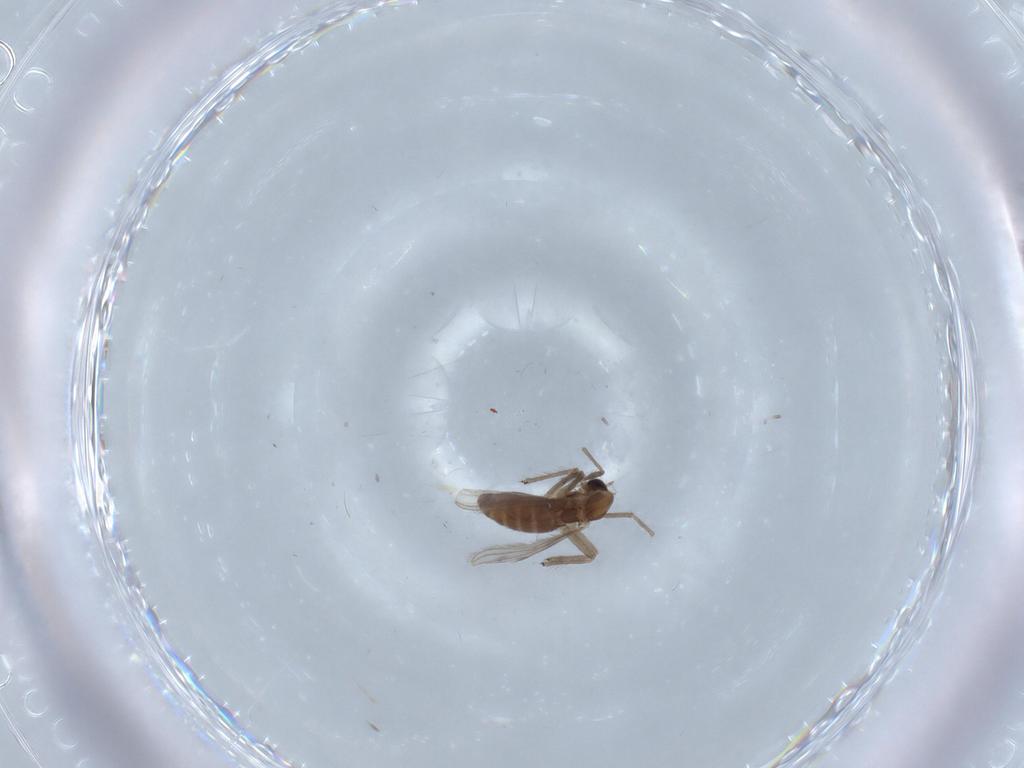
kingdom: Animalia
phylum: Arthropoda
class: Insecta
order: Diptera
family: Chironomidae
